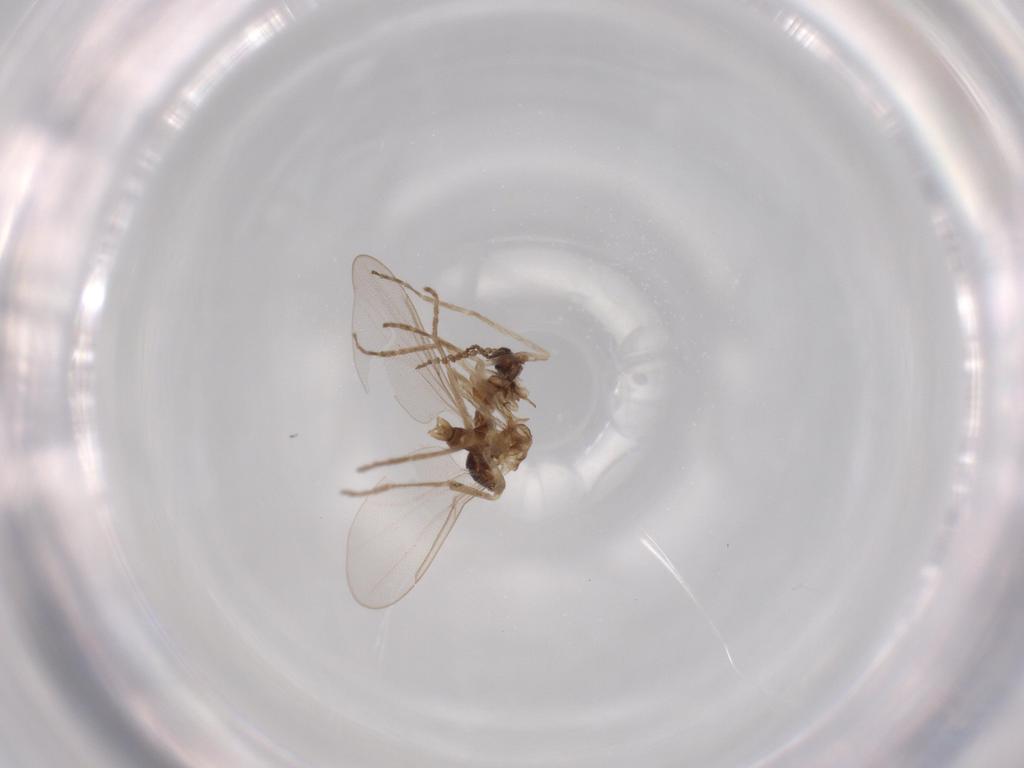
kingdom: Animalia
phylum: Arthropoda
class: Insecta
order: Diptera
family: Cecidomyiidae
